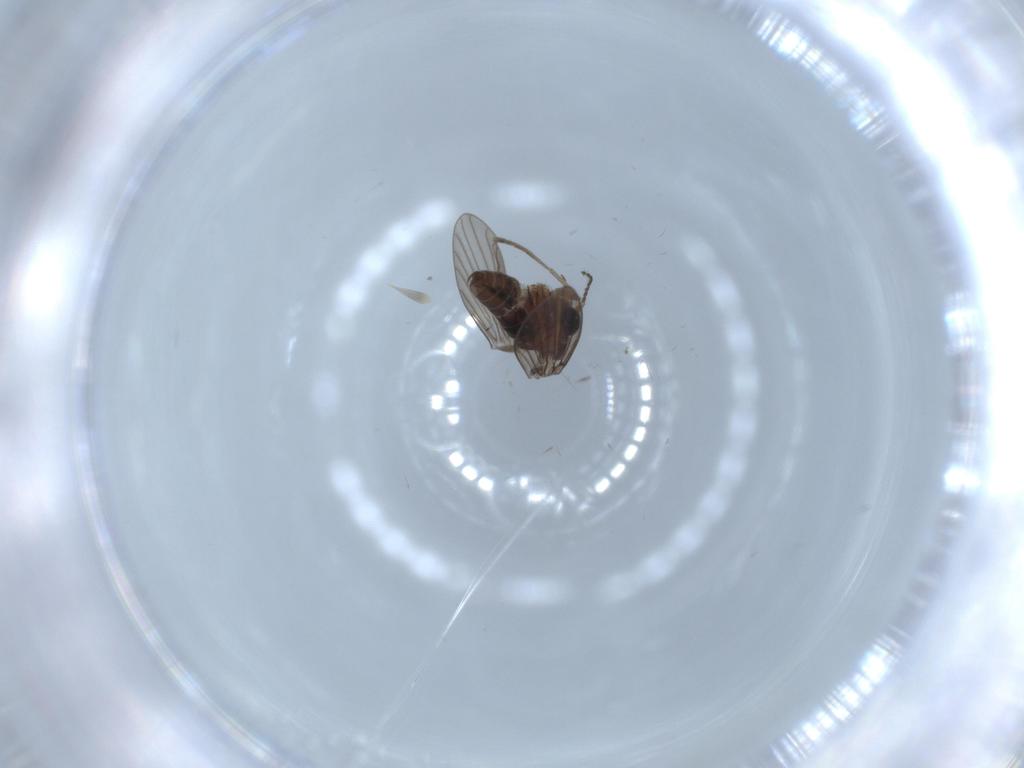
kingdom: Animalia
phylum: Arthropoda
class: Insecta
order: Diptera
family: Psychodidae
